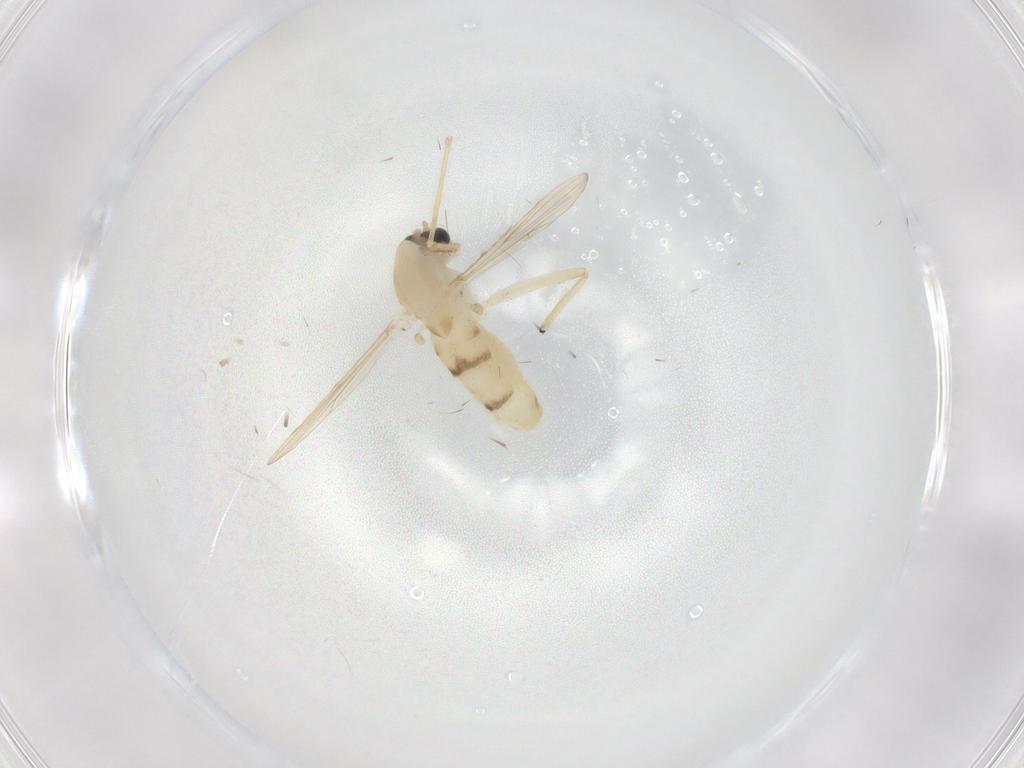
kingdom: Animalia
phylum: Arthropoda
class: Insecta
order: Diptera
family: Chironomidae
